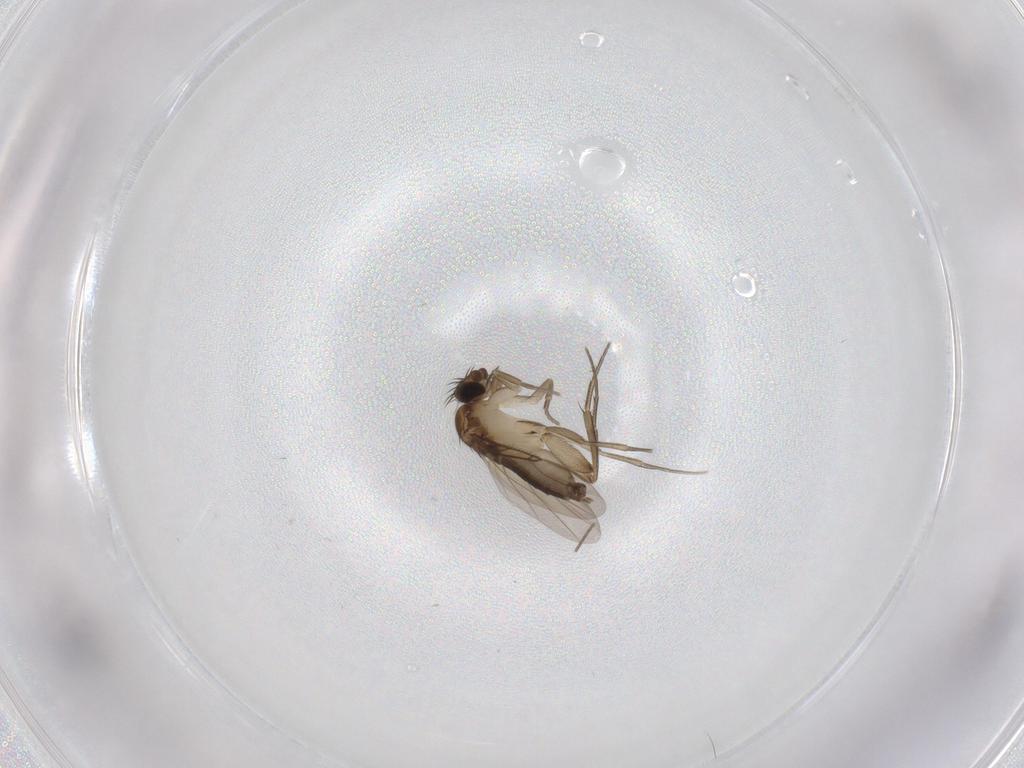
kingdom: Animalia
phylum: Arthropoda
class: Insecta
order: Diptera
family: Phoridae
